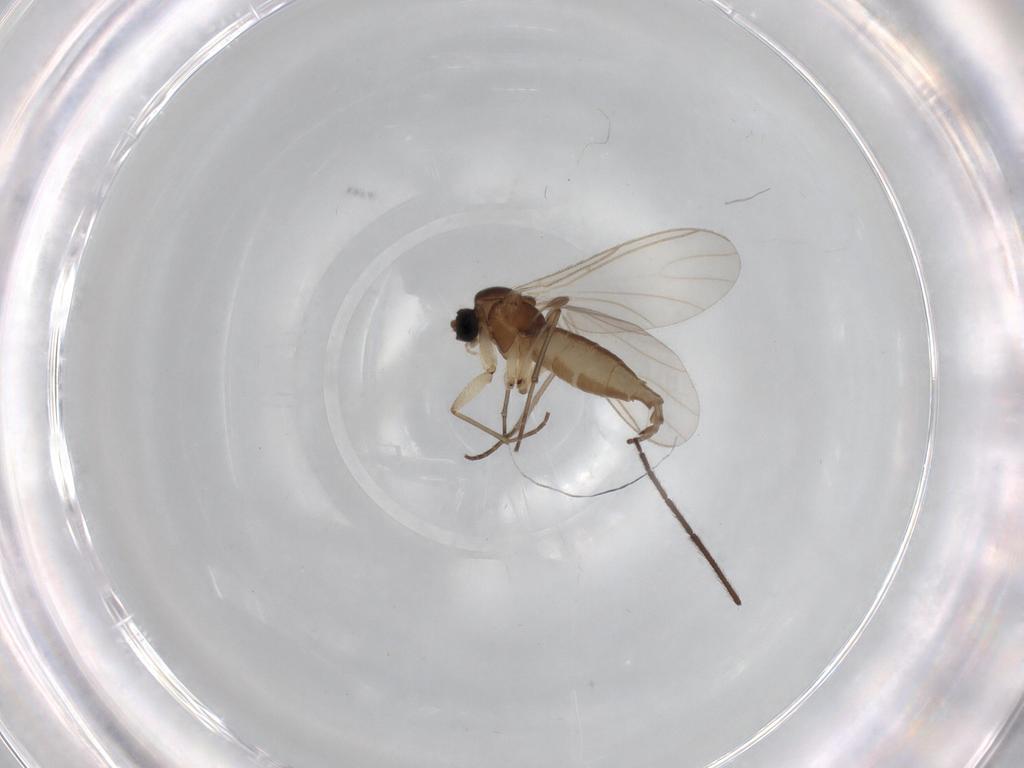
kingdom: Animalia
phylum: Arthropoda
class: Insecta
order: Diptera
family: Chironomidae
